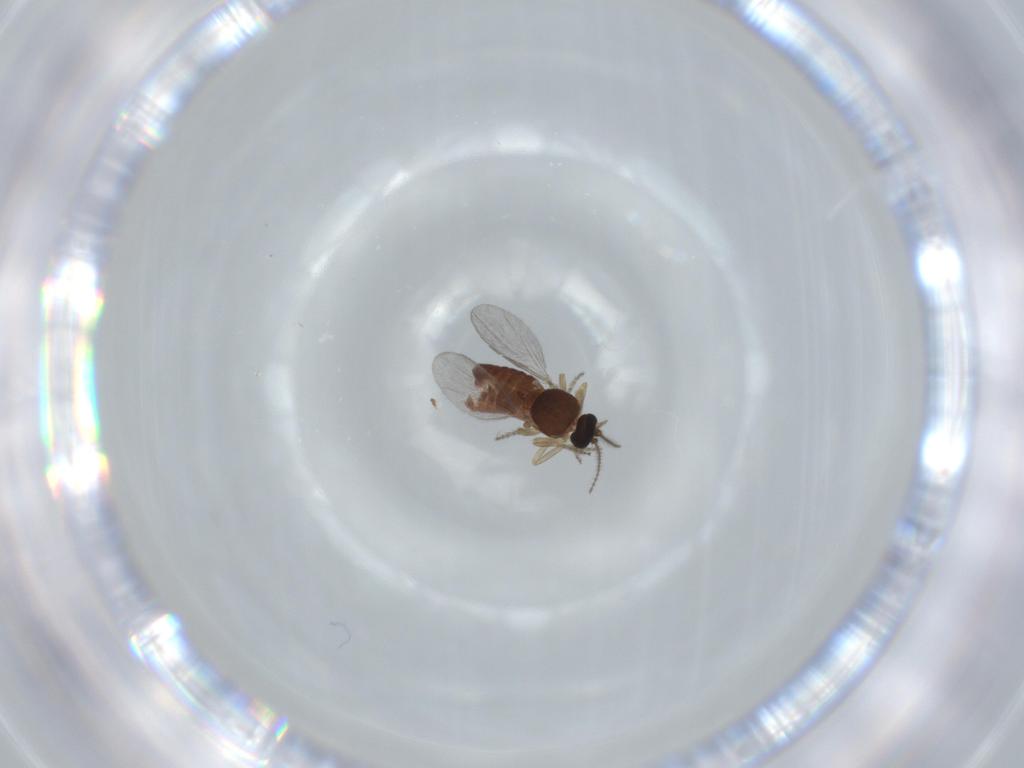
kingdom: Animalia
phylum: Arthropoda
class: Insecta
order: Diptera
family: Ceratopogonidae
